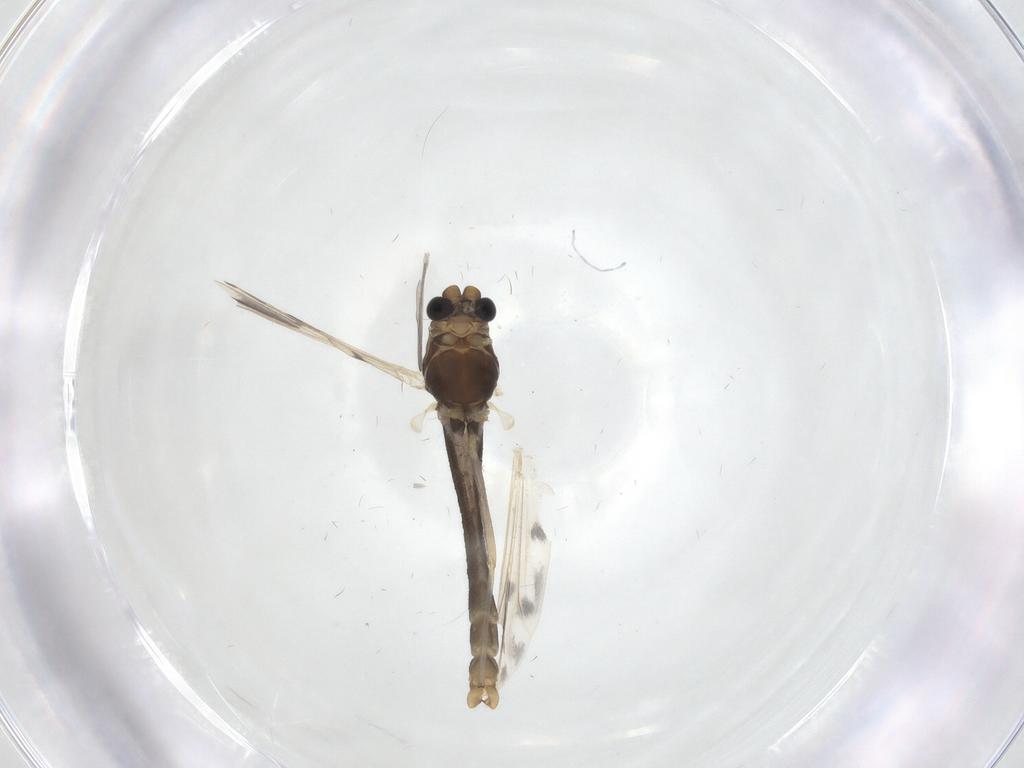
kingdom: Animalia
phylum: Arthropoda
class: Insecta
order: Diptera
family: Chironomidae
